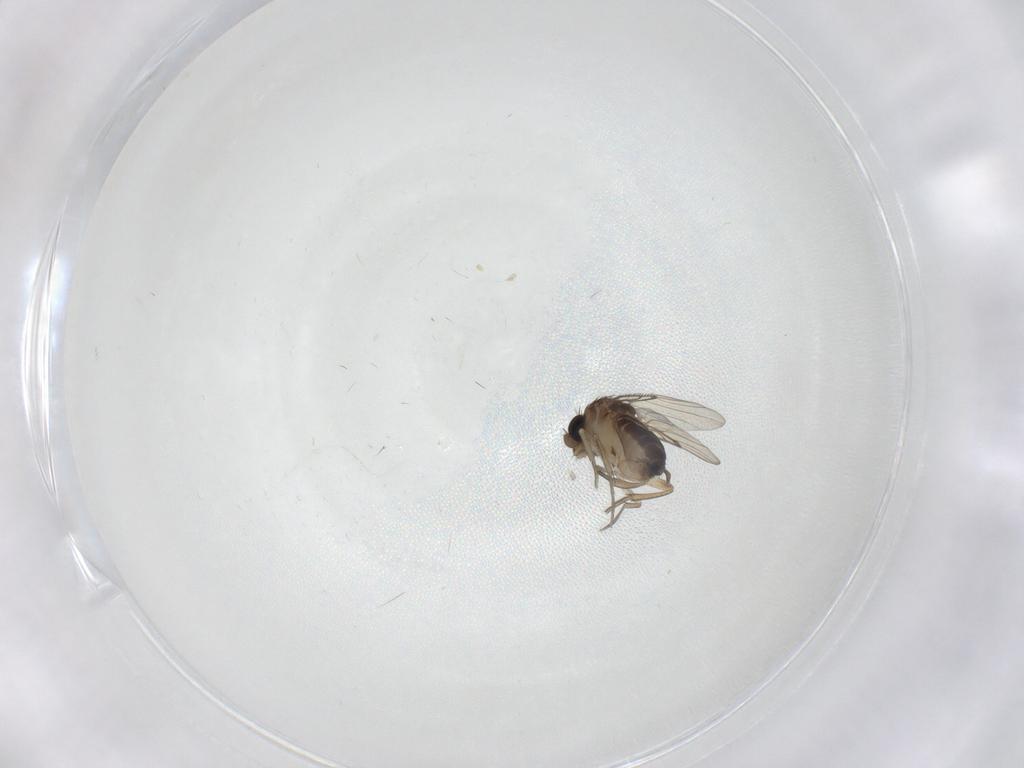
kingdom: Animalia
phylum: Arthropoda
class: Insecta
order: Diptera
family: Phoridae
